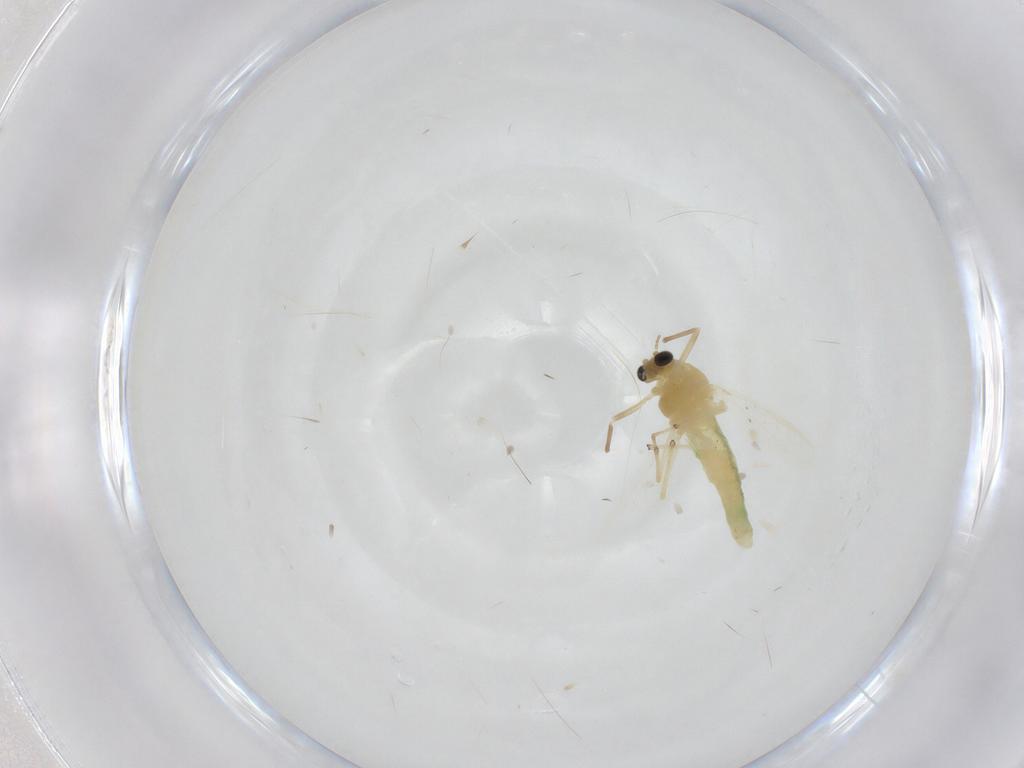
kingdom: Animalia
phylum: Arthropoda
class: Insecta
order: Diptera
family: Chironomidae
